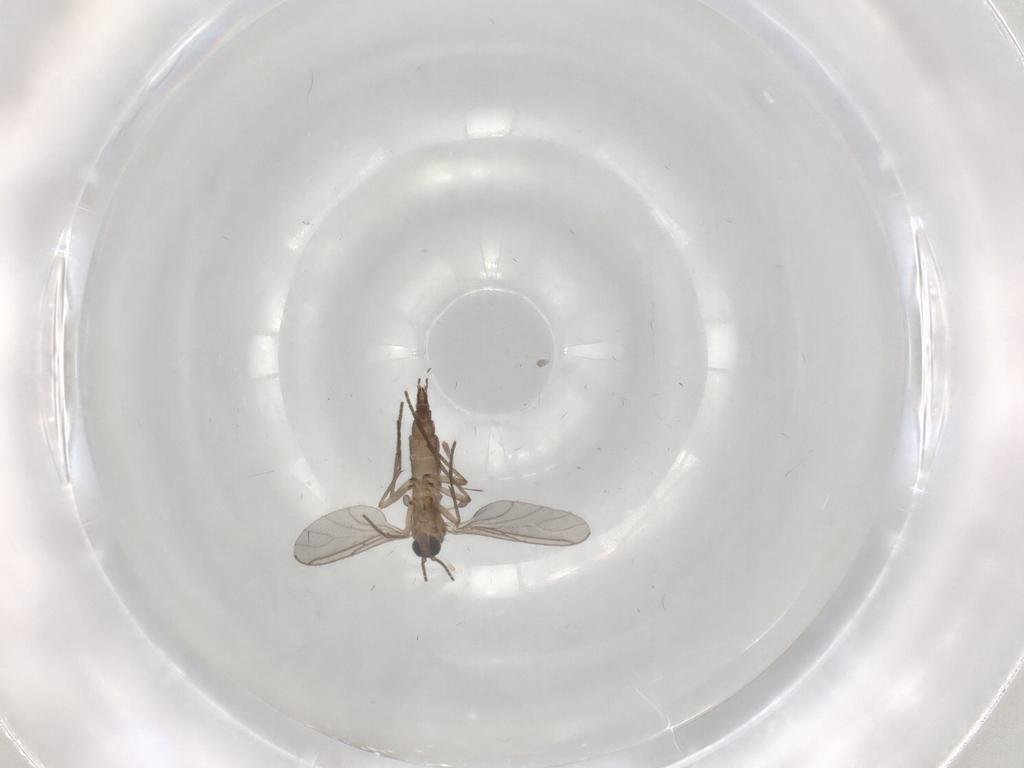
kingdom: Animalia
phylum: Arthropoda
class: Insecta
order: Diptera
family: Sciaridae
